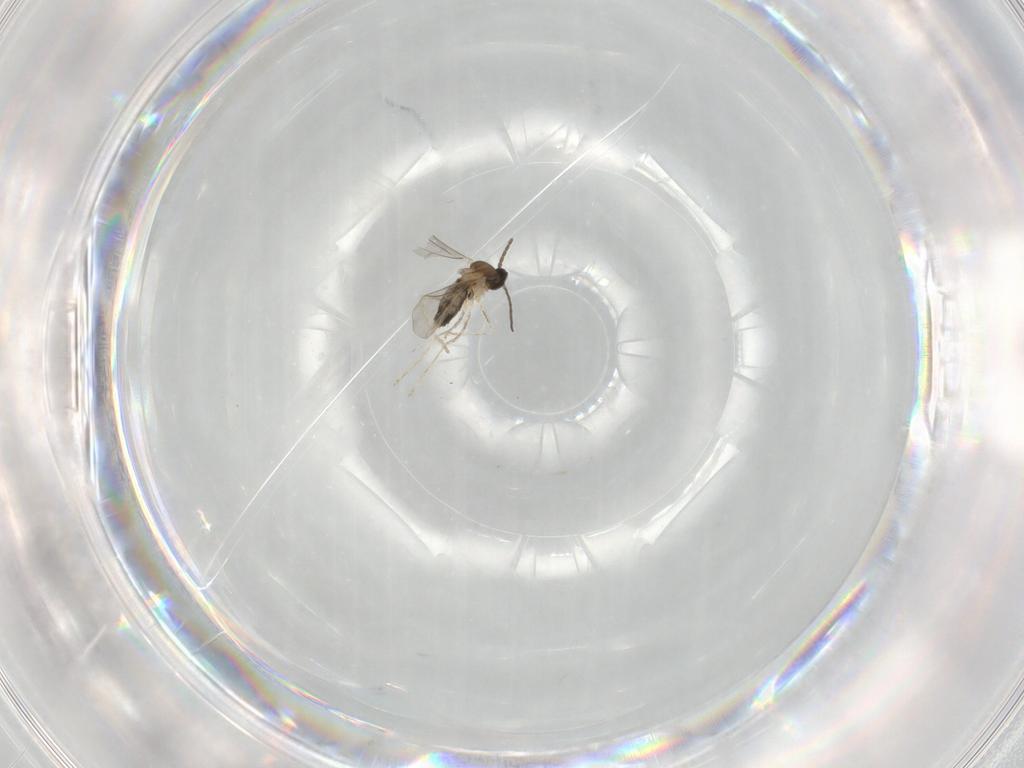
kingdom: Animalia
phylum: Arthropoda
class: Insecta
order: Diptera
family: Cecidomyiidae
